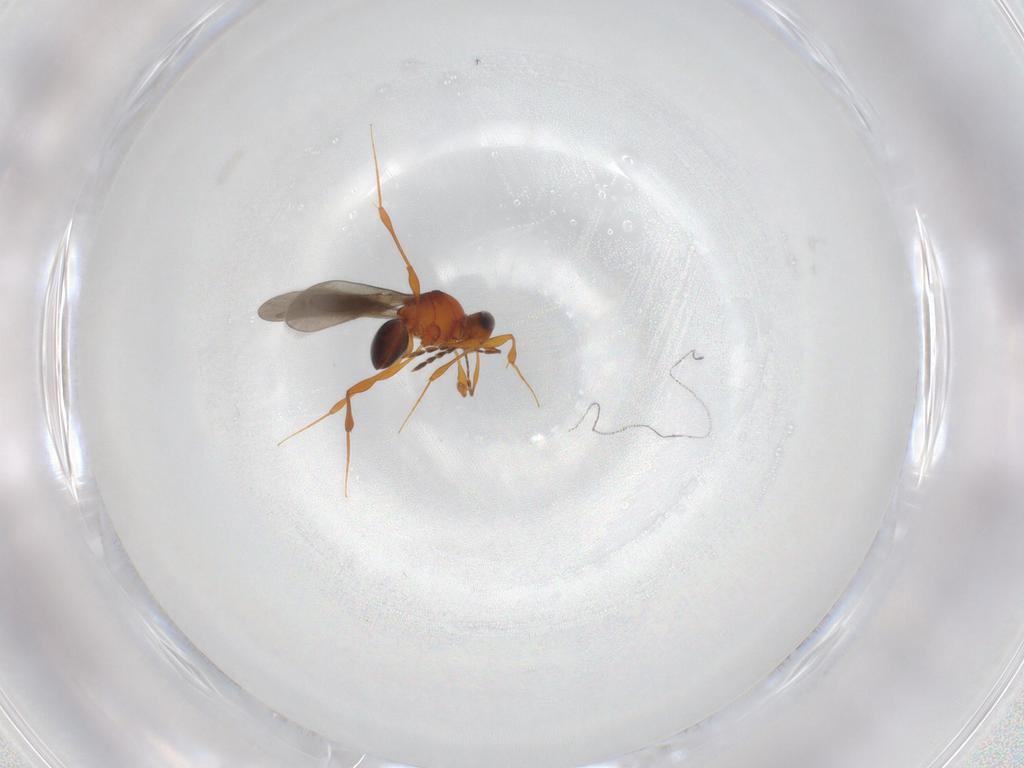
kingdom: Animalia
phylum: Arthropoda
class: Insecta
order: Hymenoptera
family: Platygastridae
